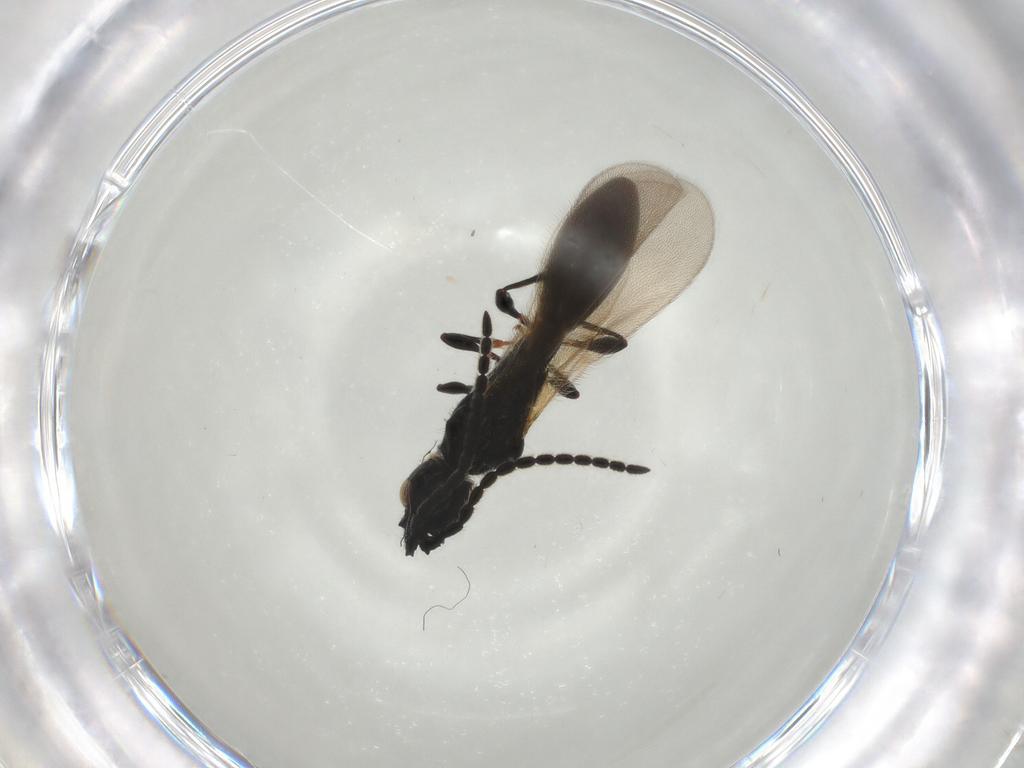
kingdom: Animalia
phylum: Arthropoda
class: Insecta
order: Hymenoptera
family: Diapriidae
